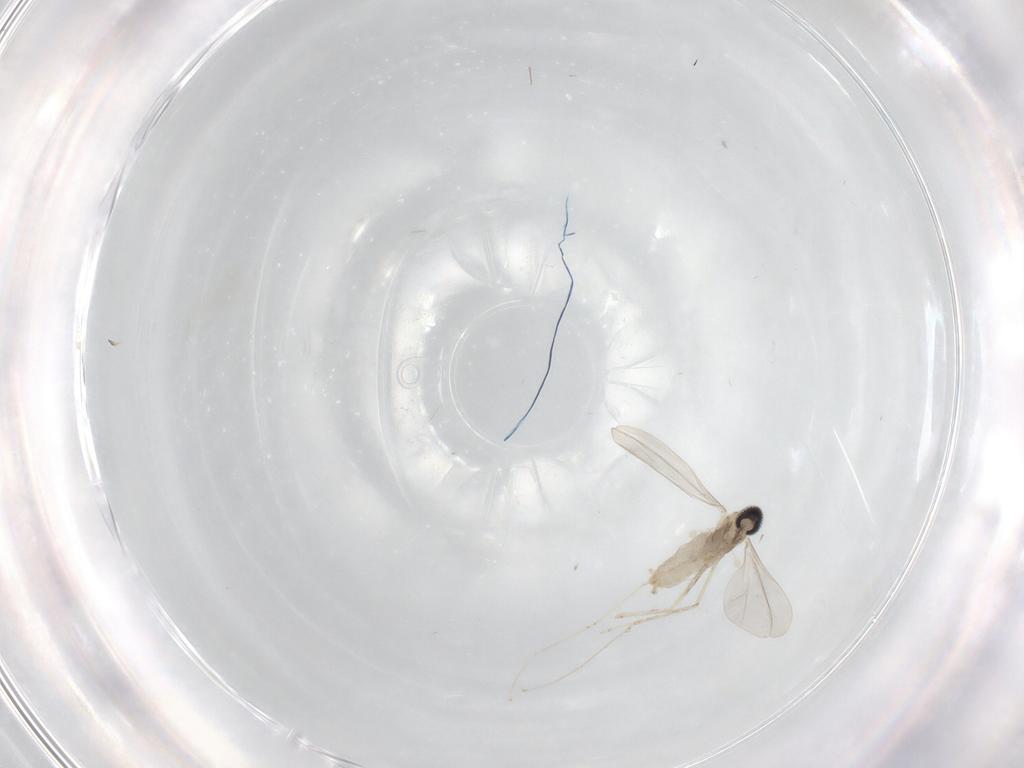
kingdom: Animalia
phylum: Arthropoda
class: Insecta
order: Diptera
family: Cecidomyiidae
